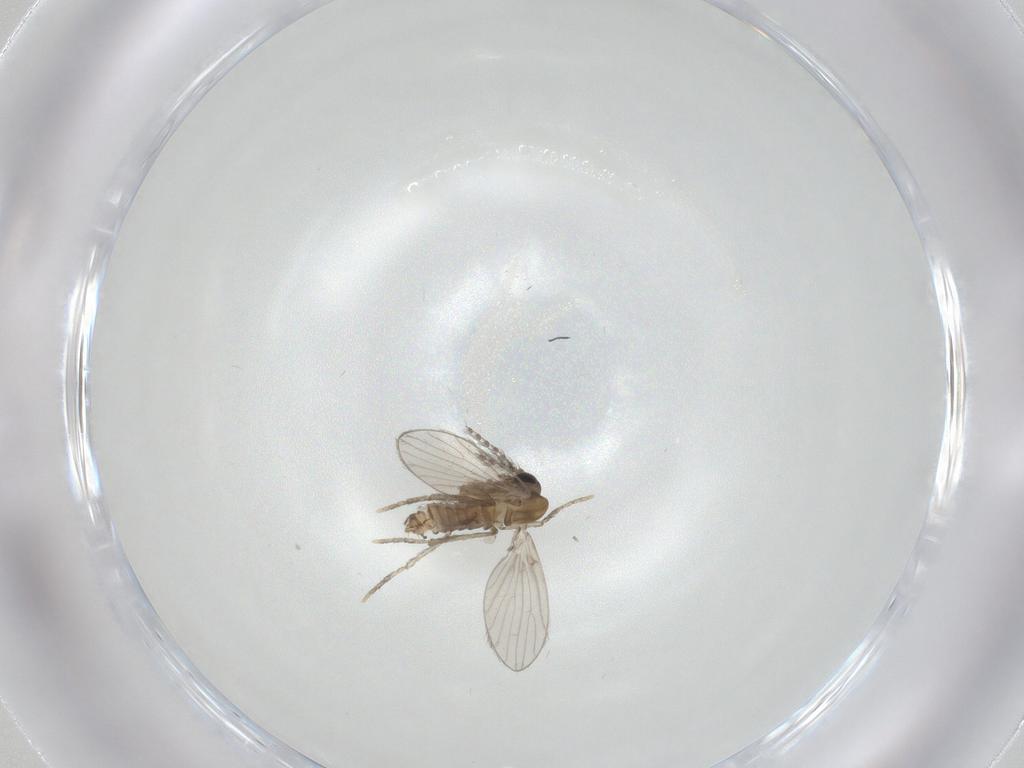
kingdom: Animalia
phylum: Arthropoda
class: Insecta
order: Diptera
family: Psychodidae
